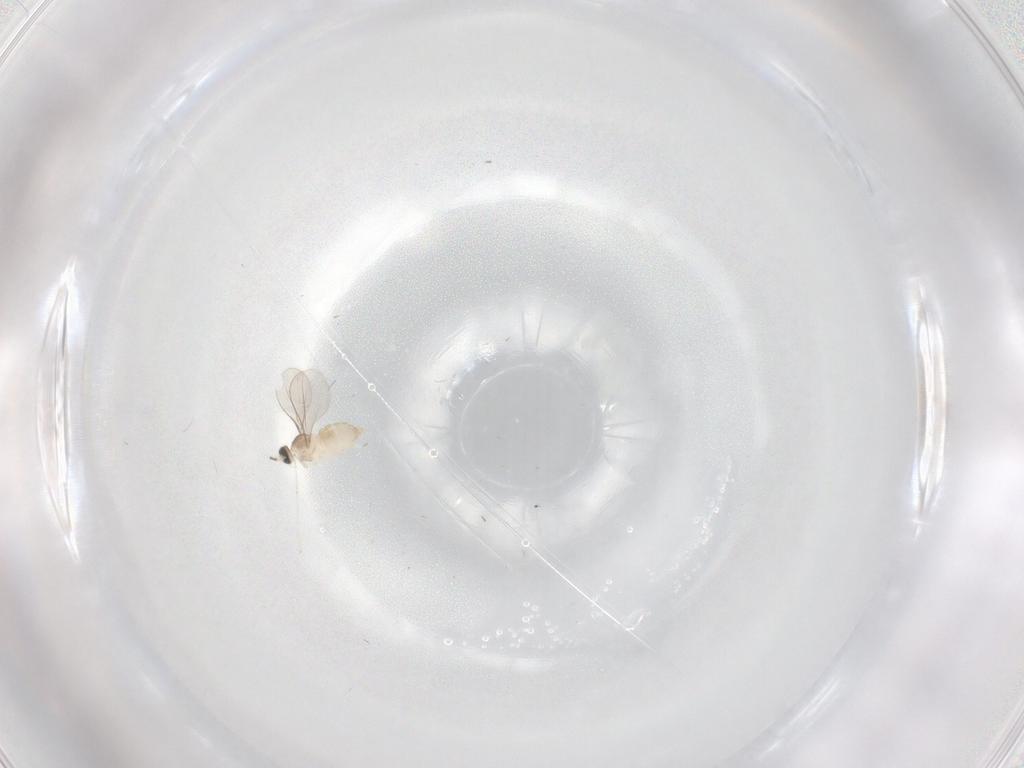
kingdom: Animalia
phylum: Arthropoda
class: Insecta
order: Diptera
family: Cecidomyiidae
